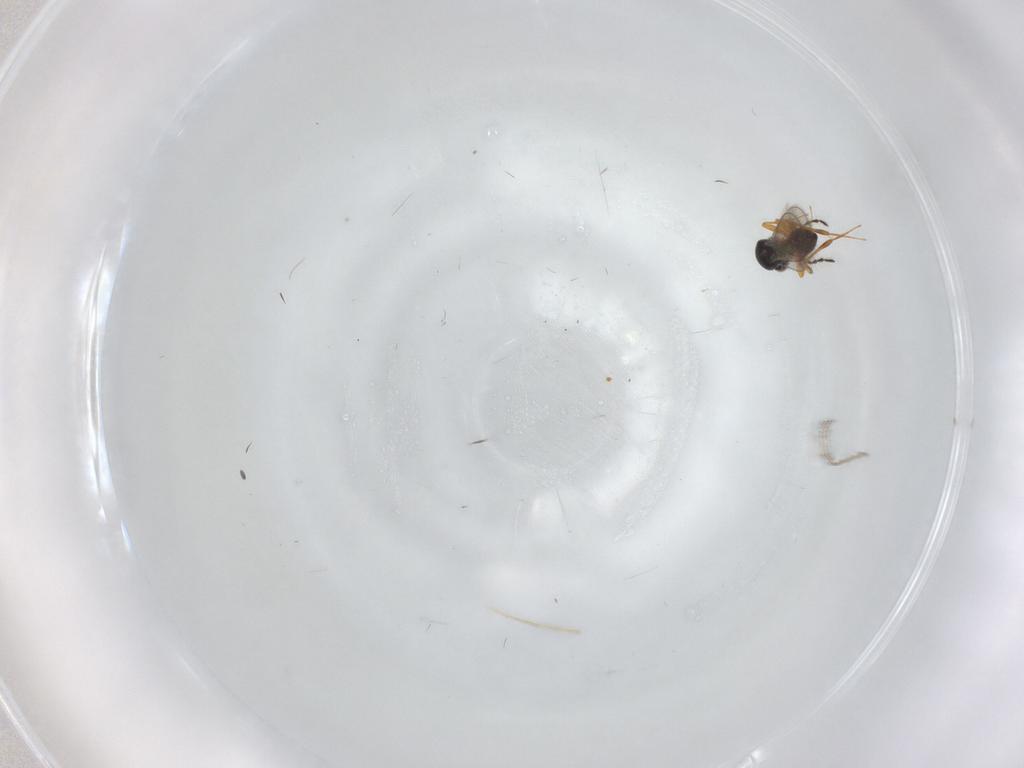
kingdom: Animalia
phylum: Arthropoda
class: Insecta
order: Hymenoptera
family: Platygastridae
